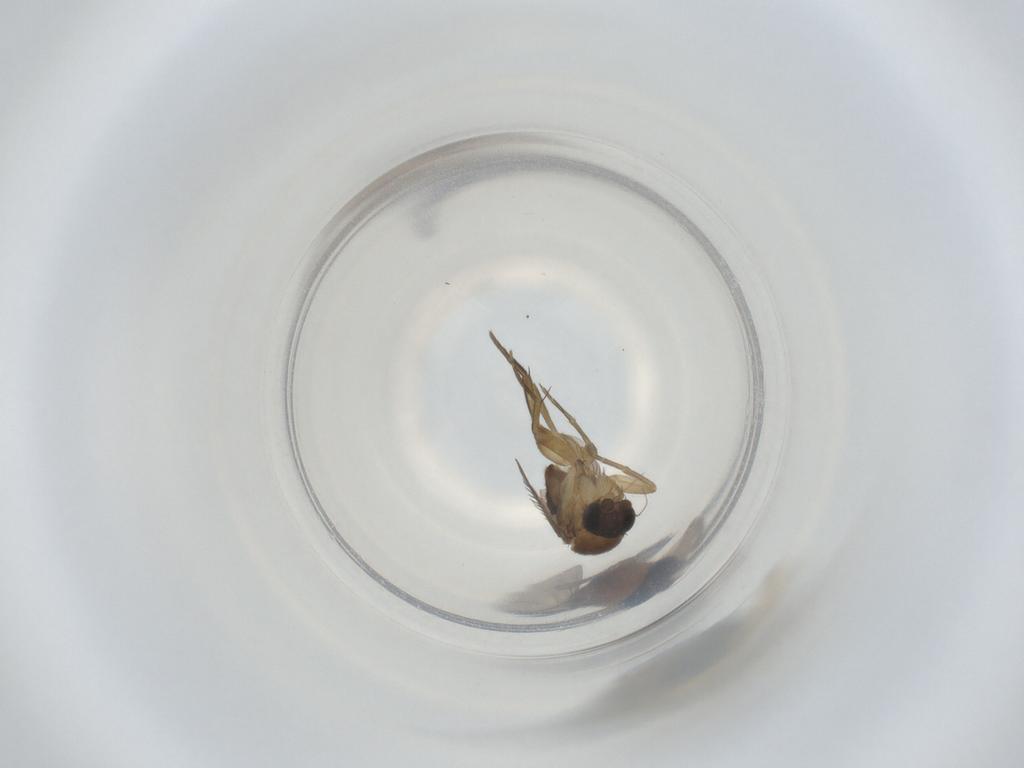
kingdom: Animalia
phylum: Arthropoda
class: Insecta
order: Diptera
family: Phoridae
